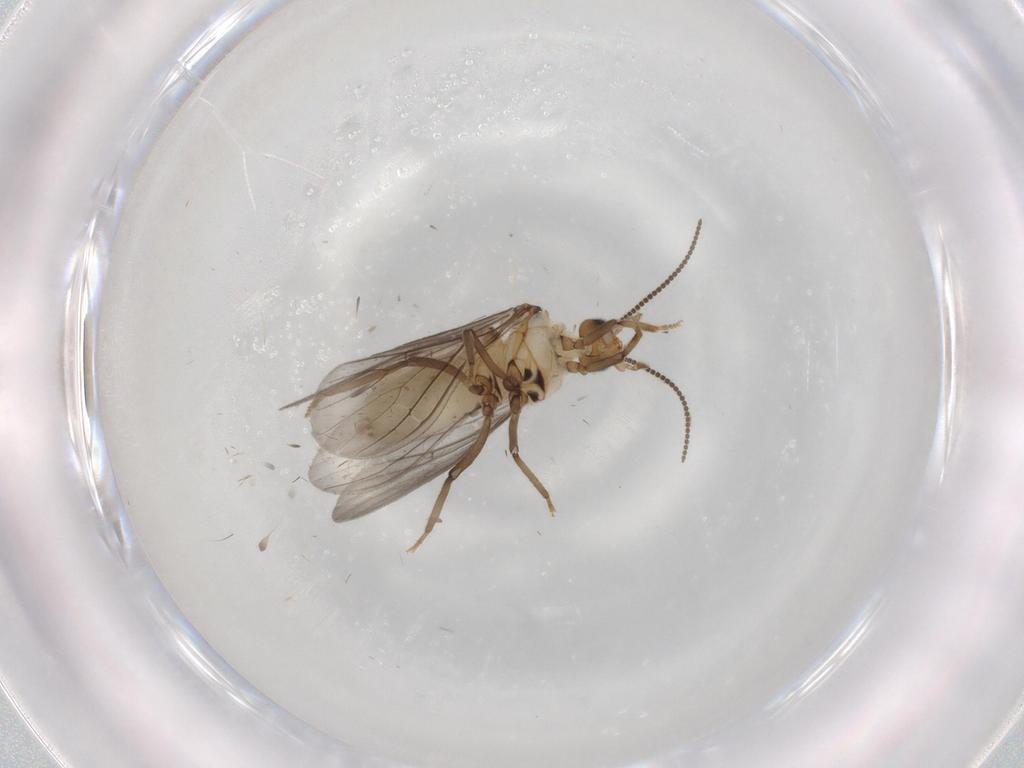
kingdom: Animalia
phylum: Arthropoda
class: Insecta
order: Neuroptera
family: Coniopterygidae
